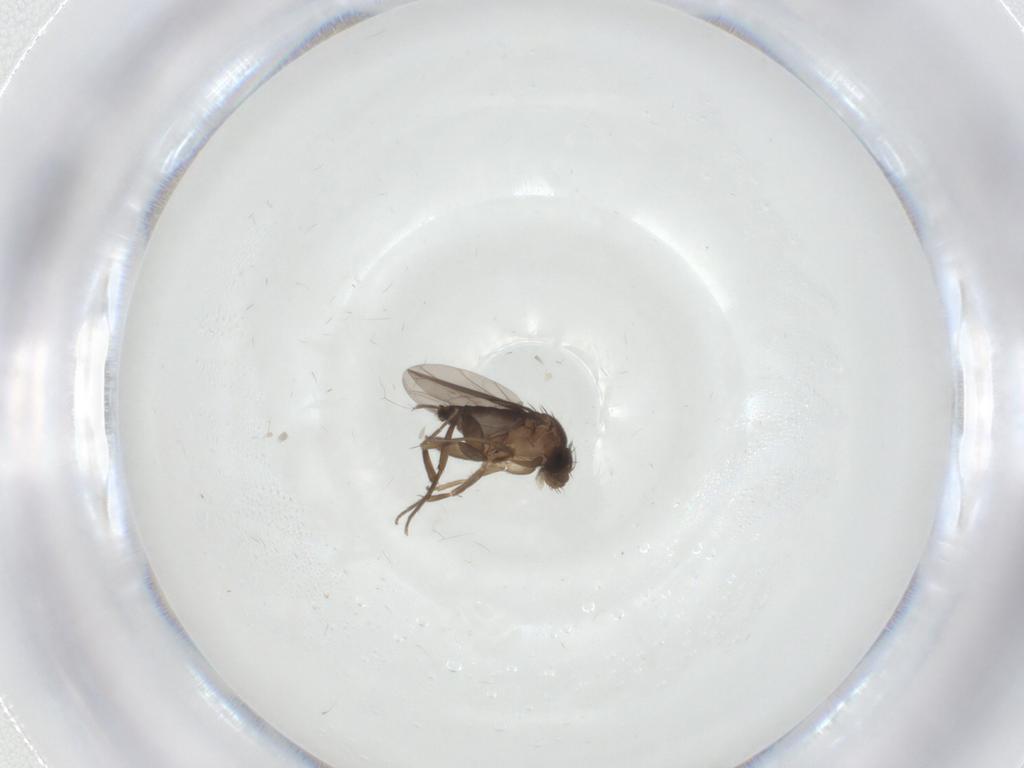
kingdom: Animalia
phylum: Arthropoda
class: Insecta
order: Diptera
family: Phoridae
